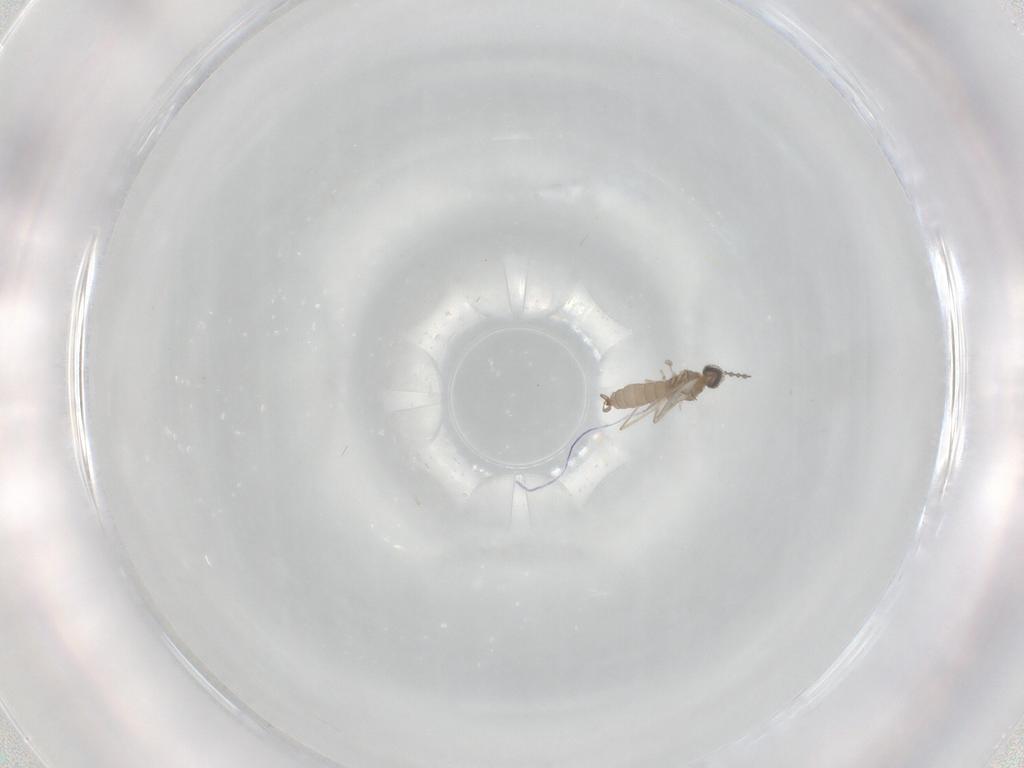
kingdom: Animalia
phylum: Arthropoda
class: Insecta
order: Diptera
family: Cecidomyiidae
